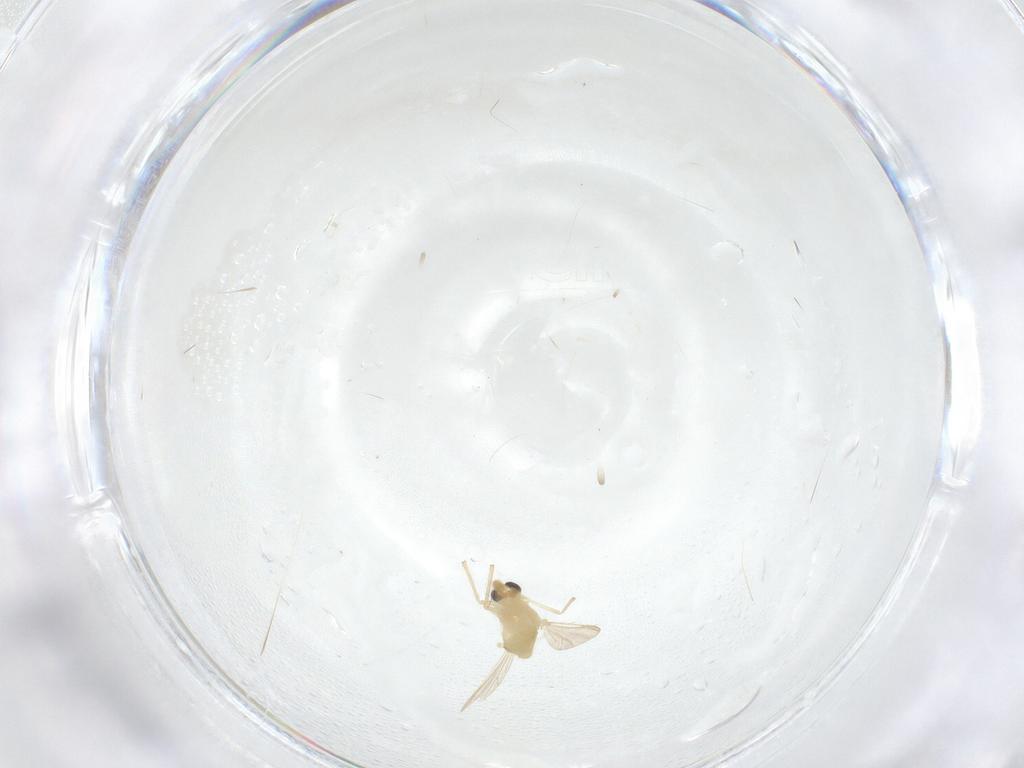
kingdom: Animalia
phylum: Arthropoda
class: Insecta
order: Diptera
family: Chironomidae
